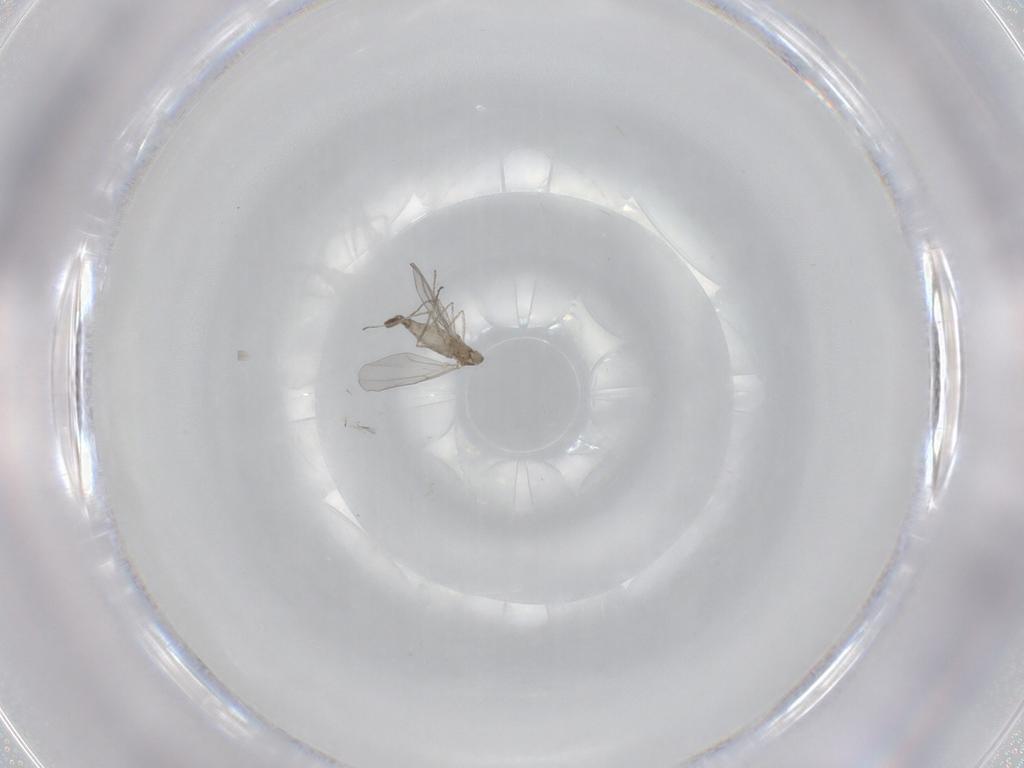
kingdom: Animalia
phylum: Arthropoda
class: Insecta
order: Diptera
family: Cecidomyiidae
